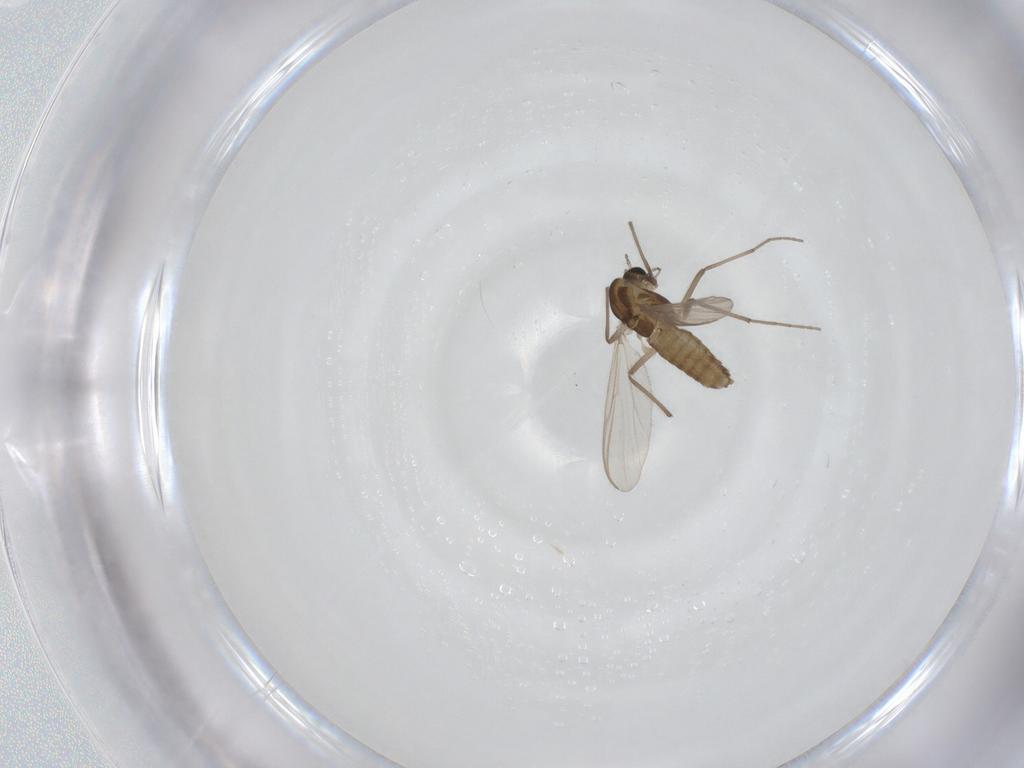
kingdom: Animalia
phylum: Arthropoda
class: Insecta
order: Diptera
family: Chironomidae
